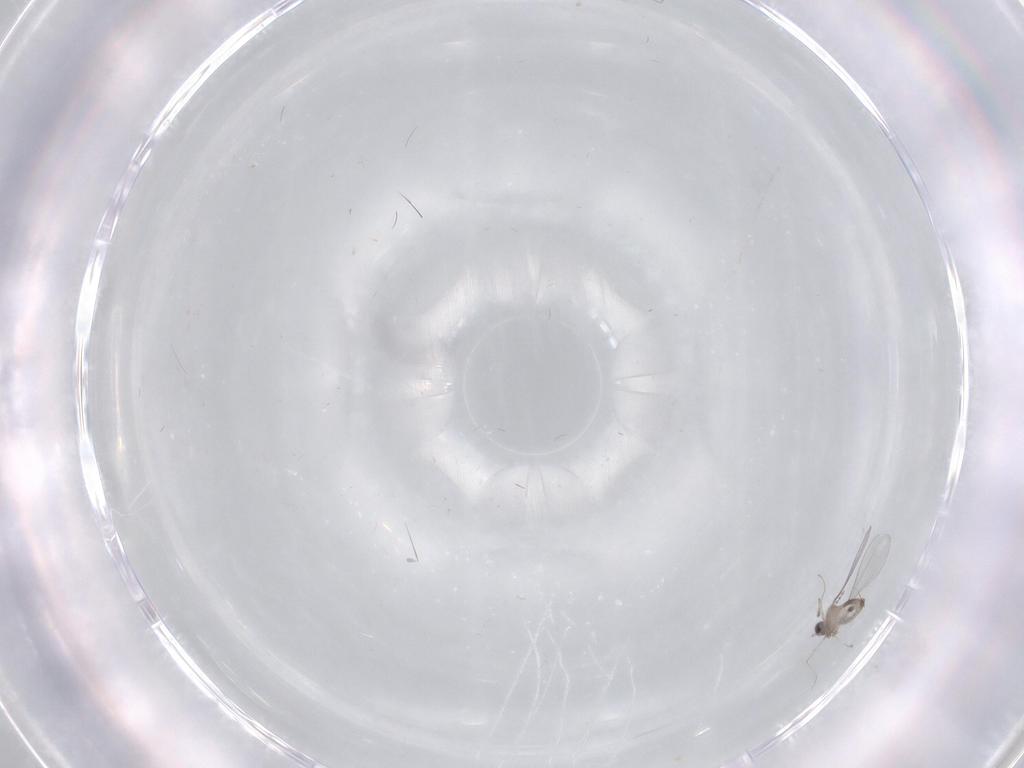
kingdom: Animalia
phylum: Arthropoda
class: Insecta
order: Diptera
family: Cecidomyiidae
